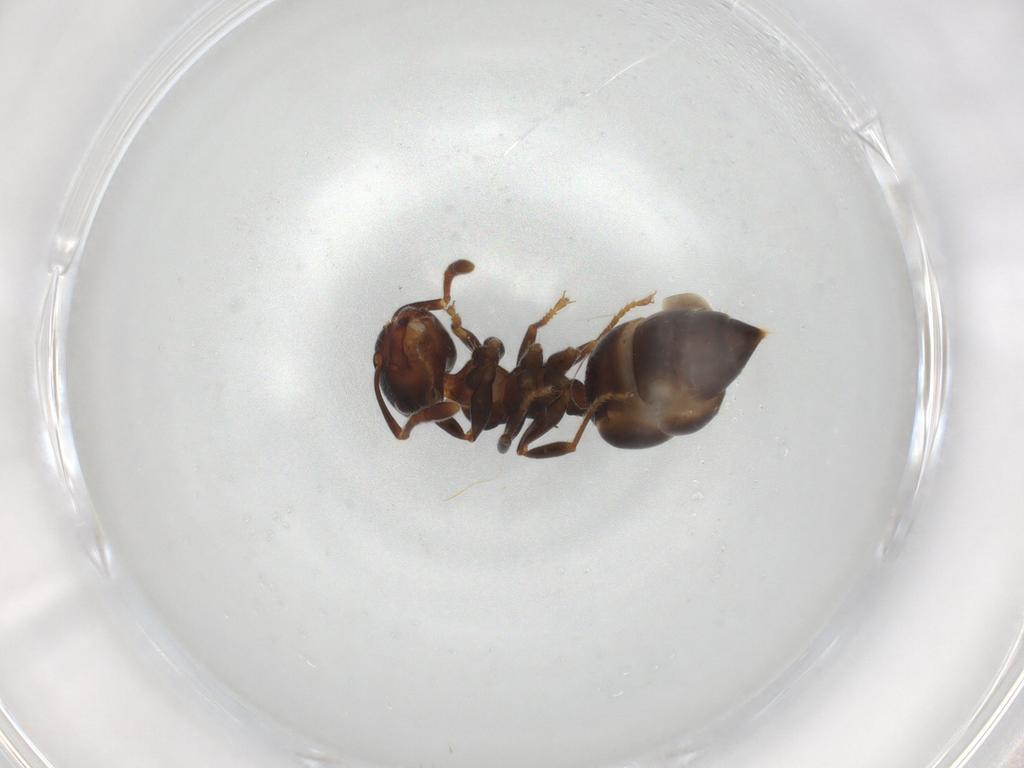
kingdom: Animalia
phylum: Arthropoda
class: Insecta
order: Hymenoptera
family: Formicidae
